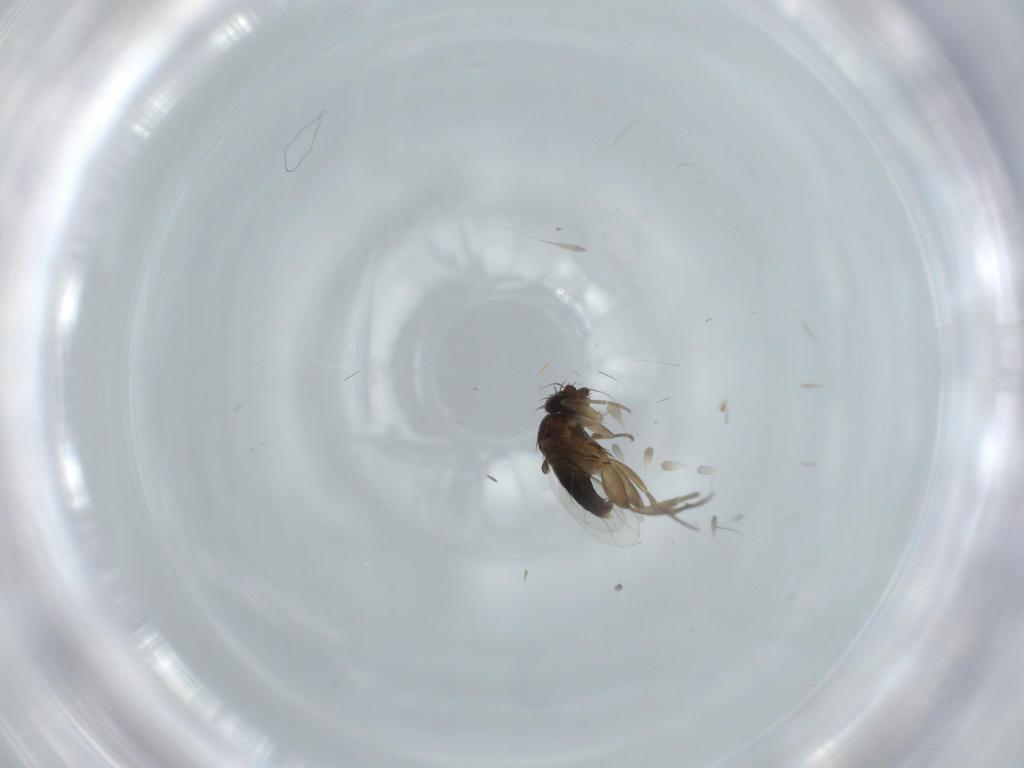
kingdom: Animalia
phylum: Arthropoda
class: Insecta
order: Diptera
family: Phoridae
